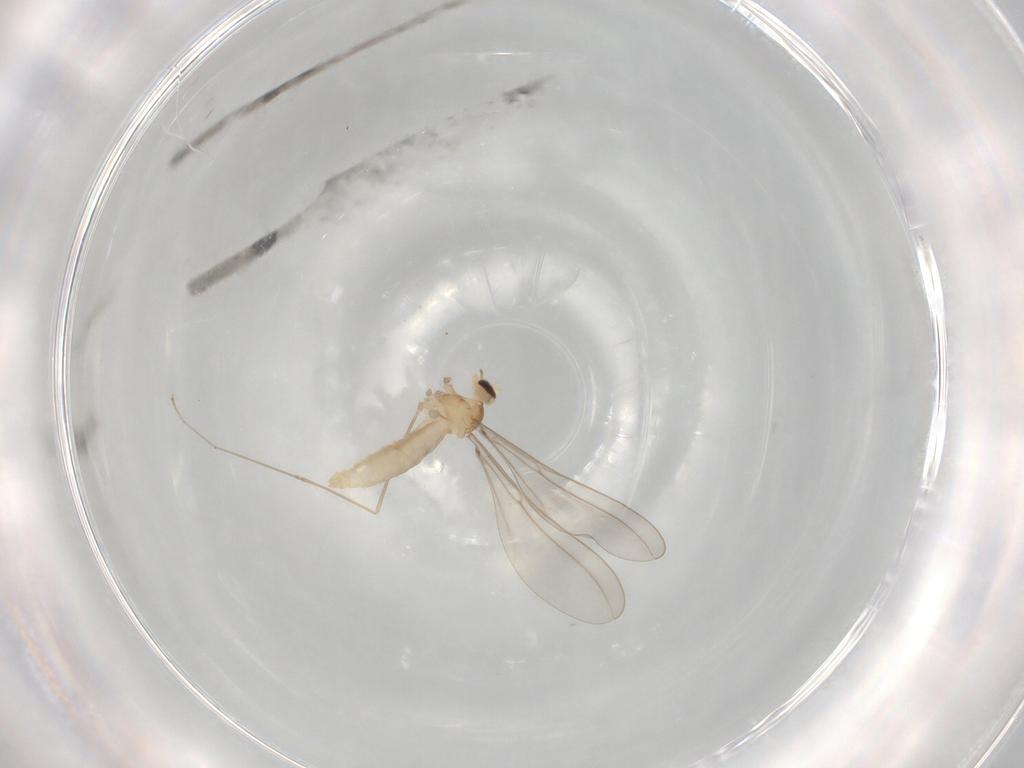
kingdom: Animalia
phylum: Arthropoda
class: Insecta
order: Diptera
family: Cecidomyiidae
